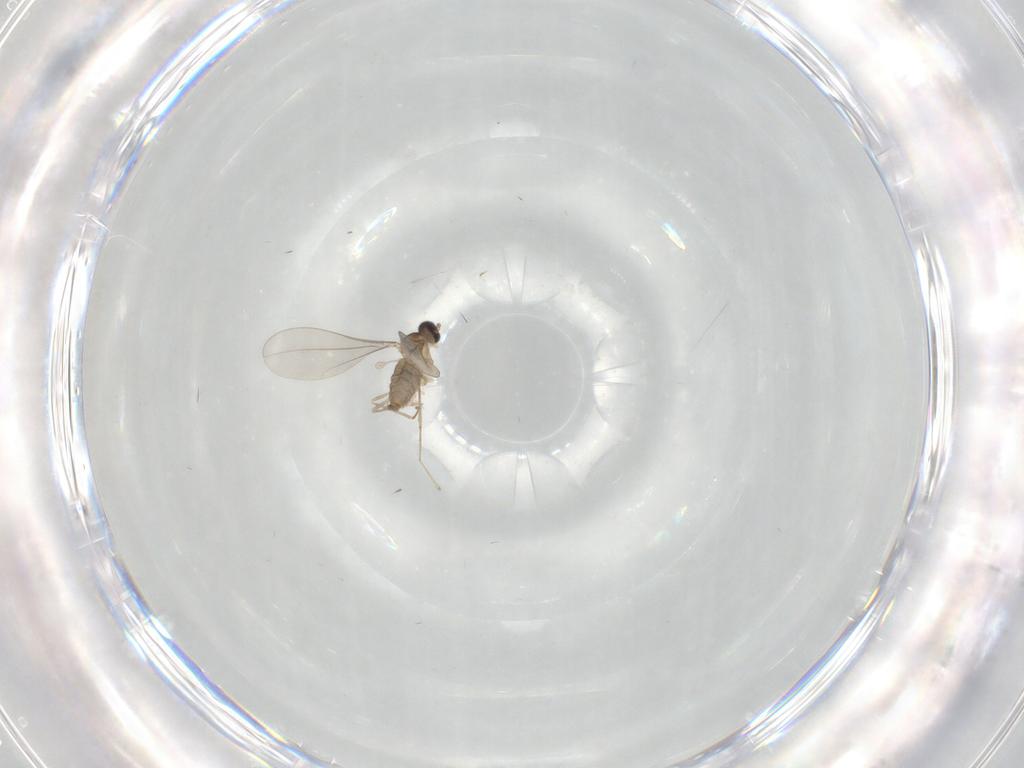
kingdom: Animalia
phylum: Arthropoda
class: Insecta
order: Diptera
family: Cecidomyiidae
